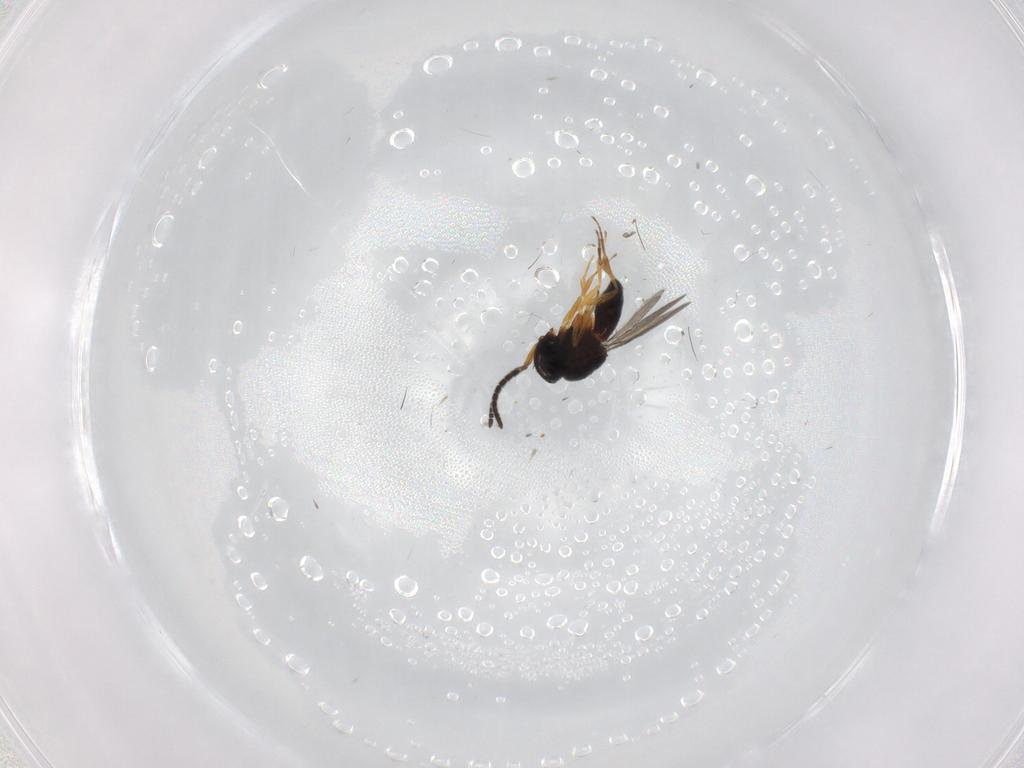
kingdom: Animalia
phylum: Arthropoda
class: Insecta
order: Hymenoptera
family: Scelionidae
